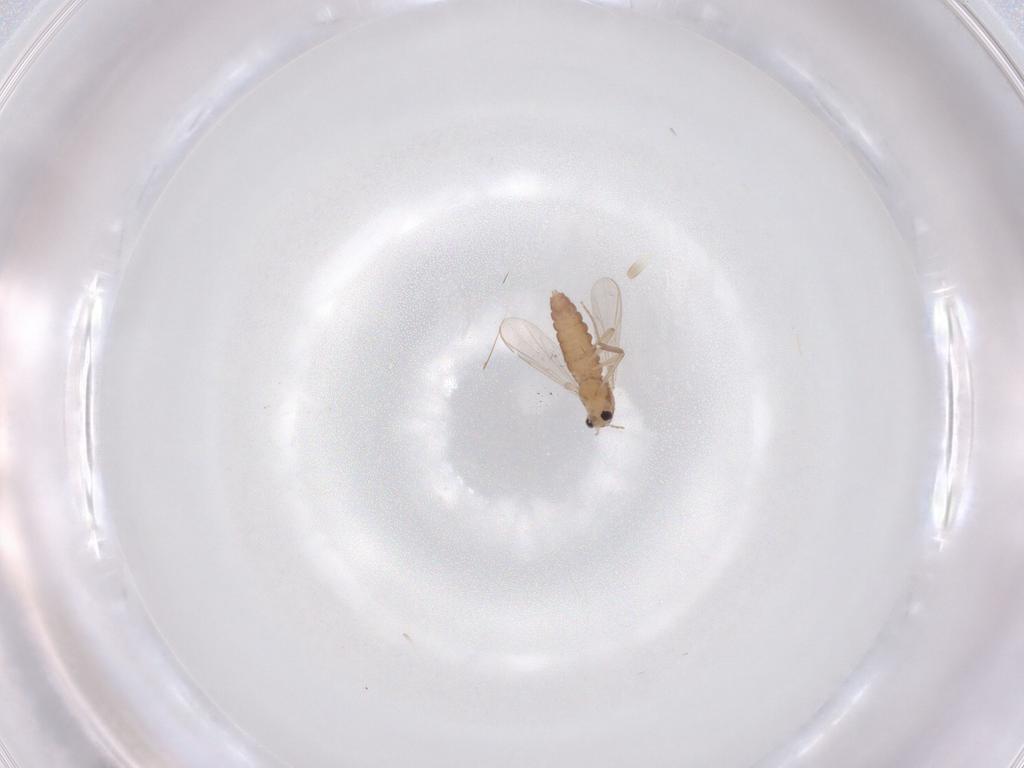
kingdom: Animalia
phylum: Arthropoda
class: Insecta
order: Diptera
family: Chironomidae
